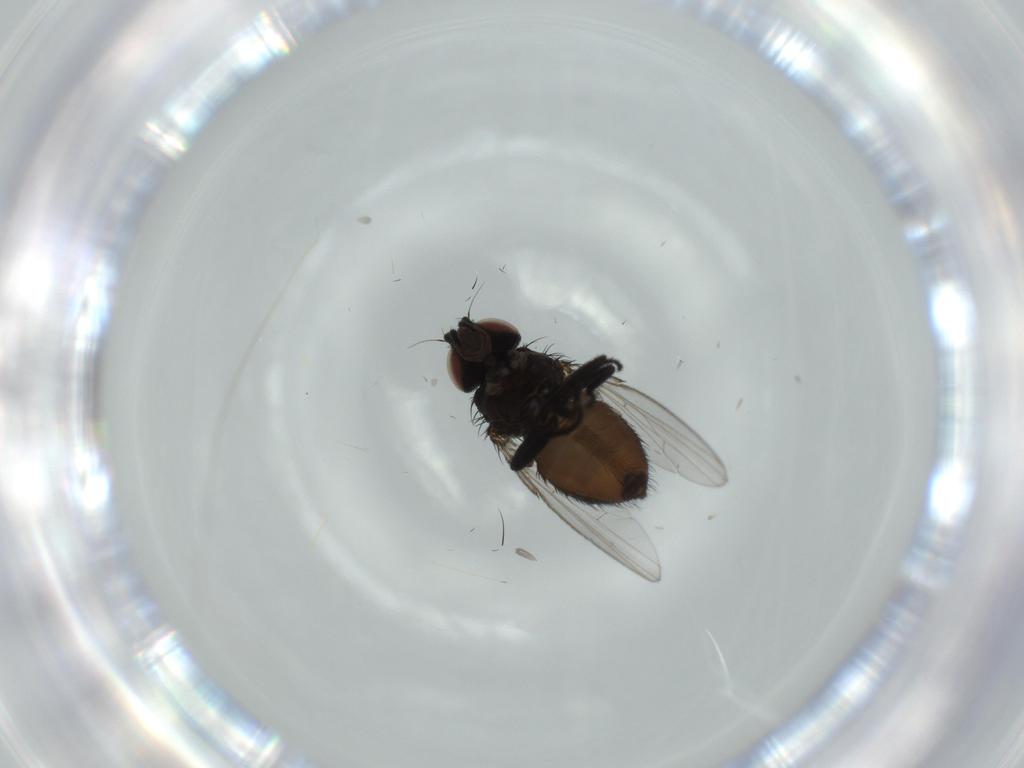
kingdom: Animalia
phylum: Arthropoda
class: Insecta
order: Diptera
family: Milichiidae
